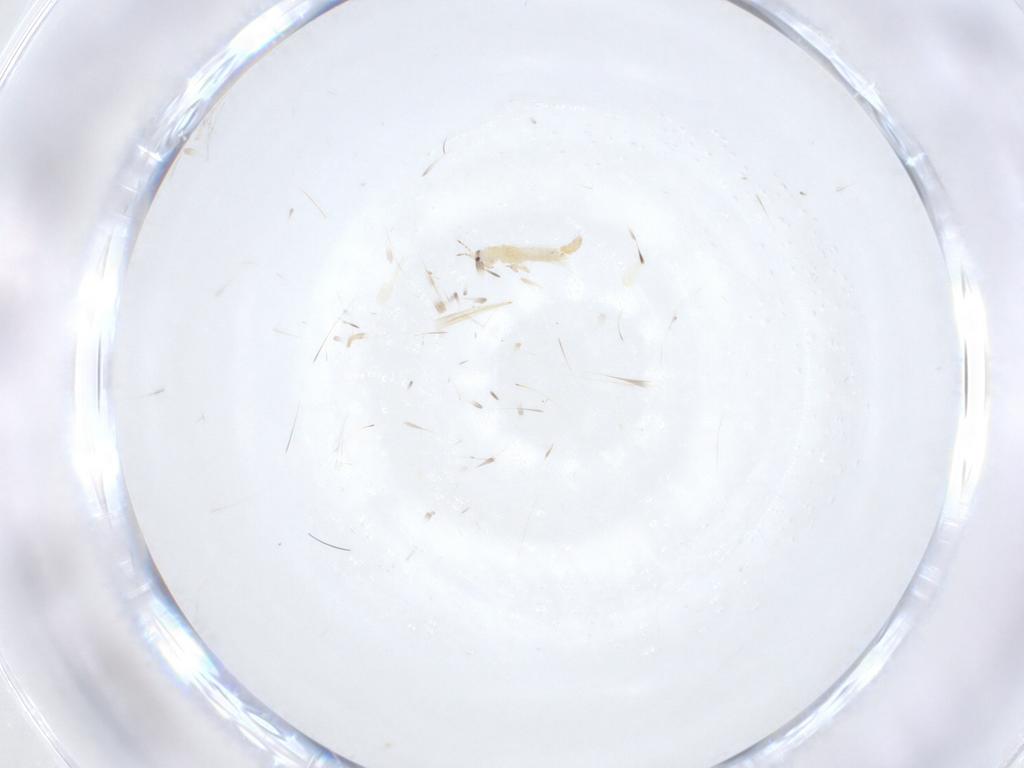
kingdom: Animalia
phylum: Arthropoda
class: Insecta
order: Thysanoptera
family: Thripidae
